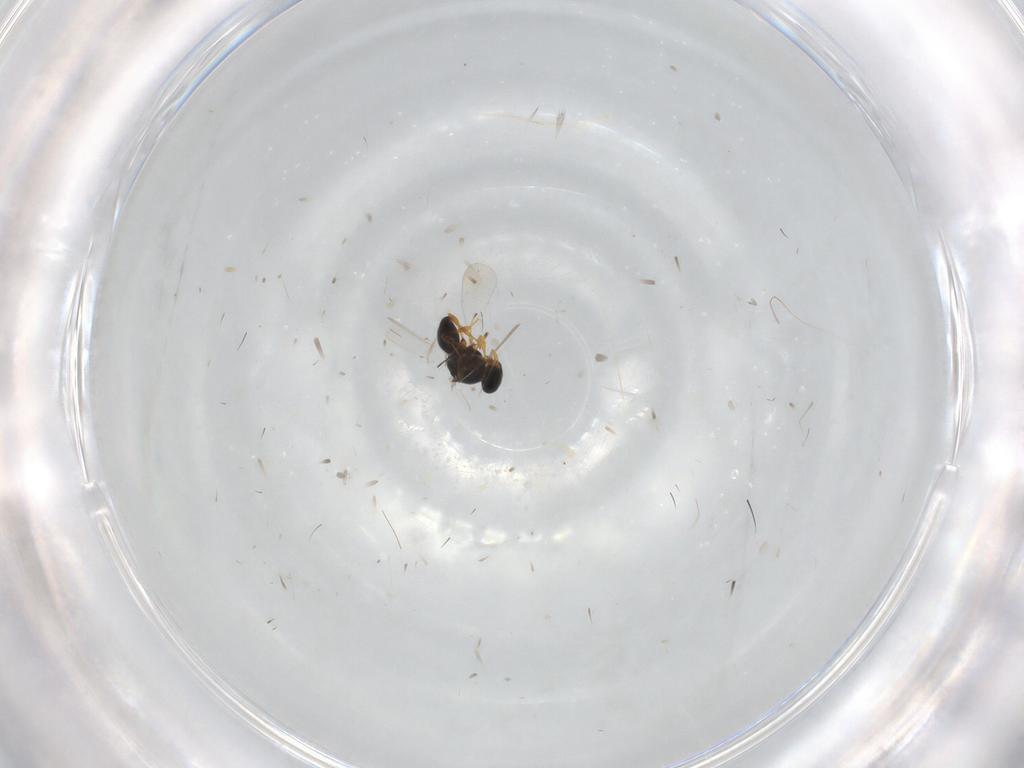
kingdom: Animalia
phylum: Arthropoda
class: Insecta
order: Hymenoptera
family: Platygastridae
